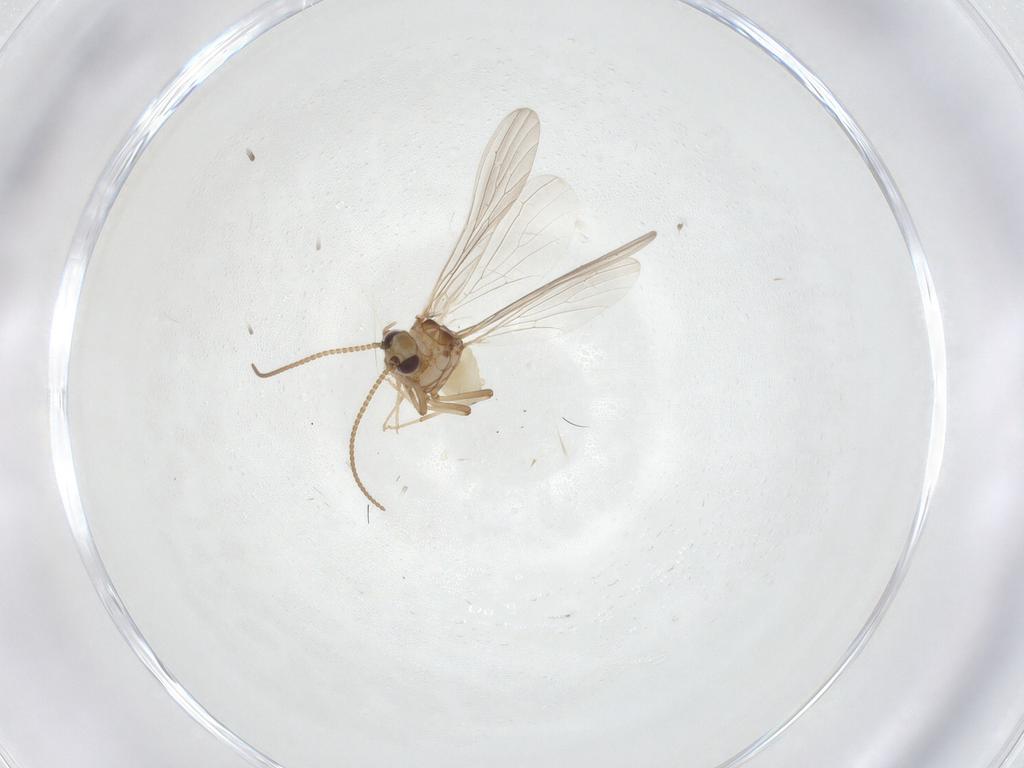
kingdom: Animalia
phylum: Arthropoda
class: Insecta
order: Neuroptera
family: Coniopterygidae
